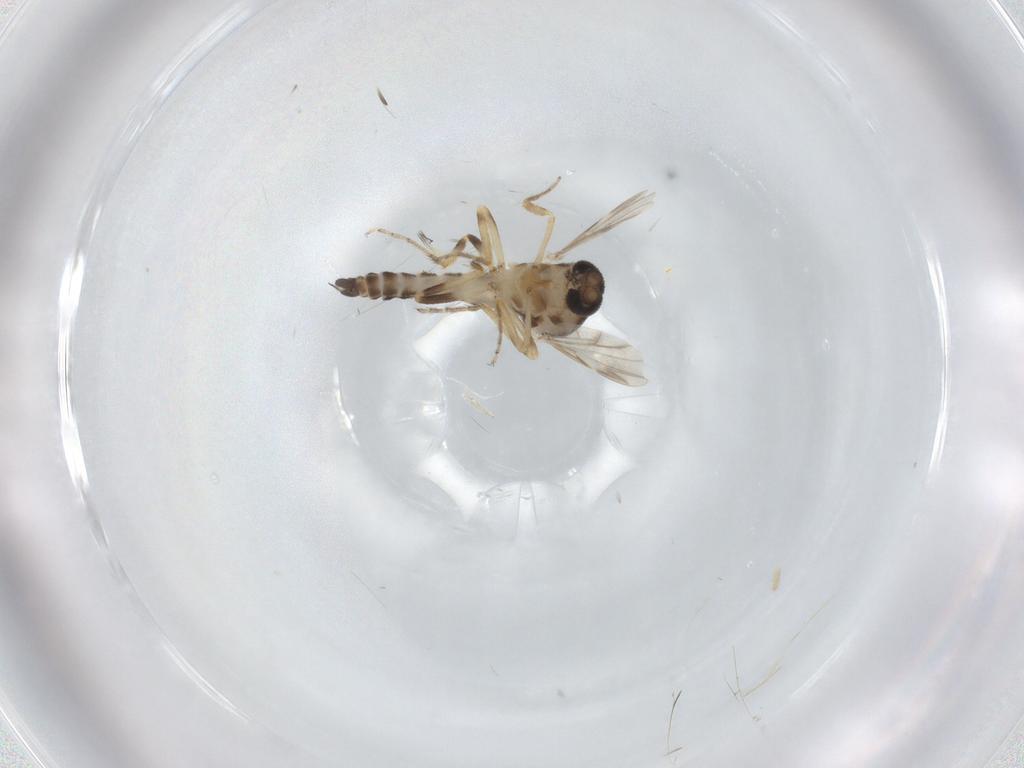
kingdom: Animalia
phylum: Arthropoda
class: Insecta
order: Diptera
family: Ceratopogonidae
